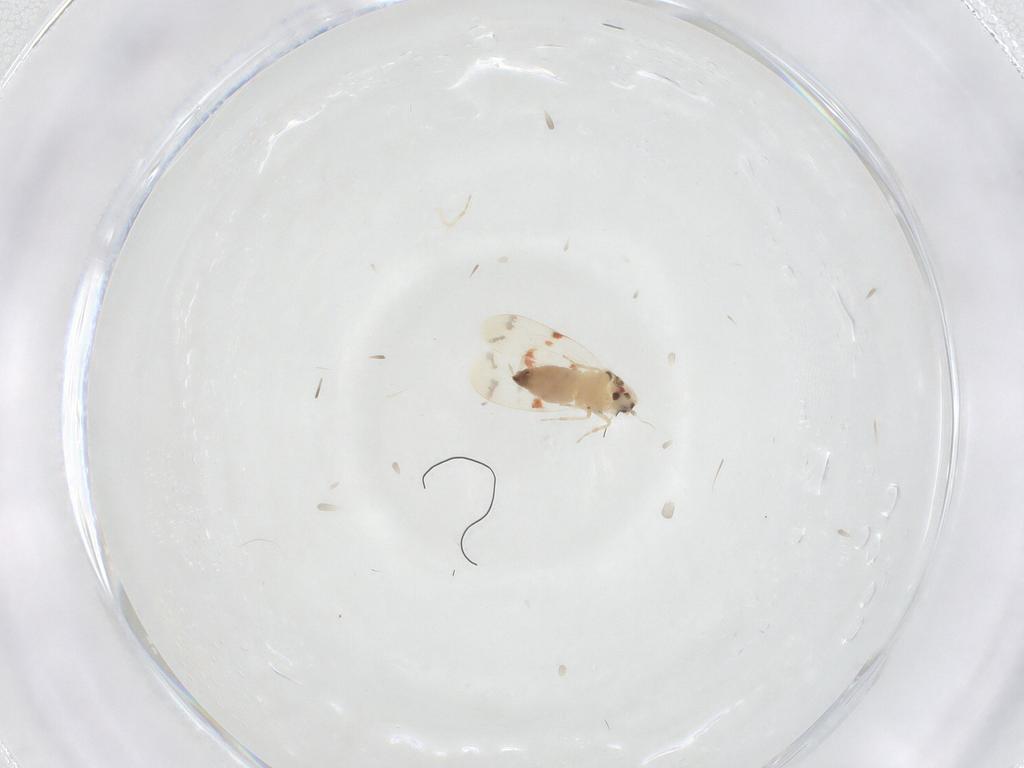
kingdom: Animalia
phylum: Arthropoda
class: Insecta
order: Hemiptera
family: Aleyrodidae
